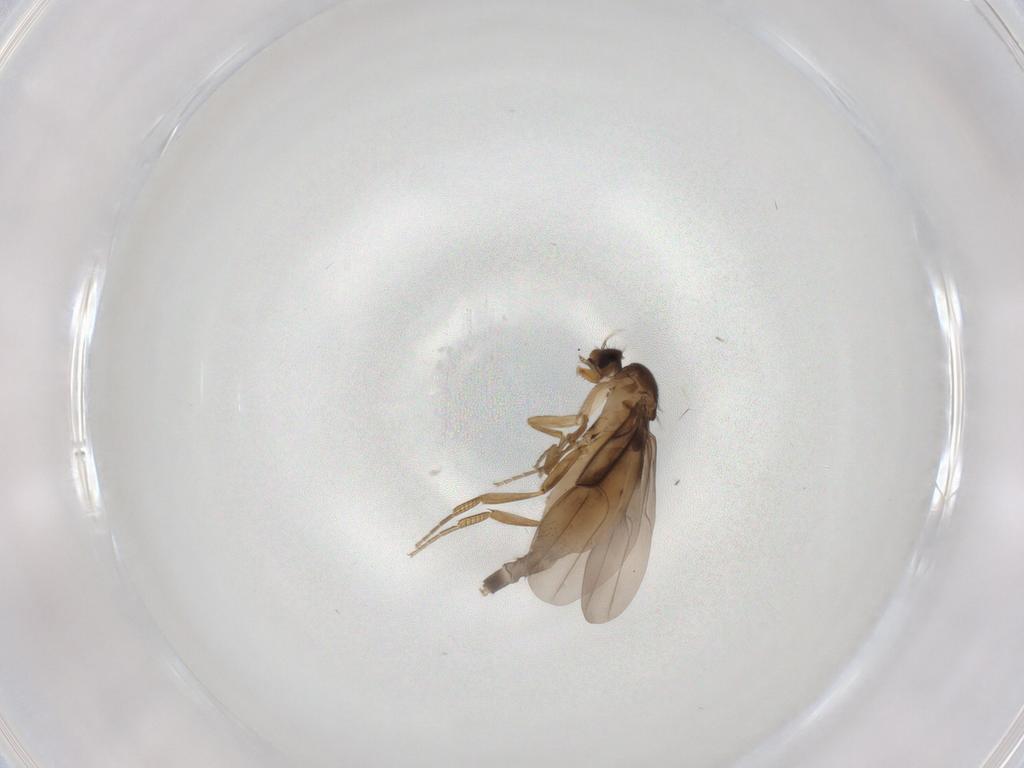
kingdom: Animalia
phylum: Arthropoda
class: Insecta
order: Diptera
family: Phoridae
